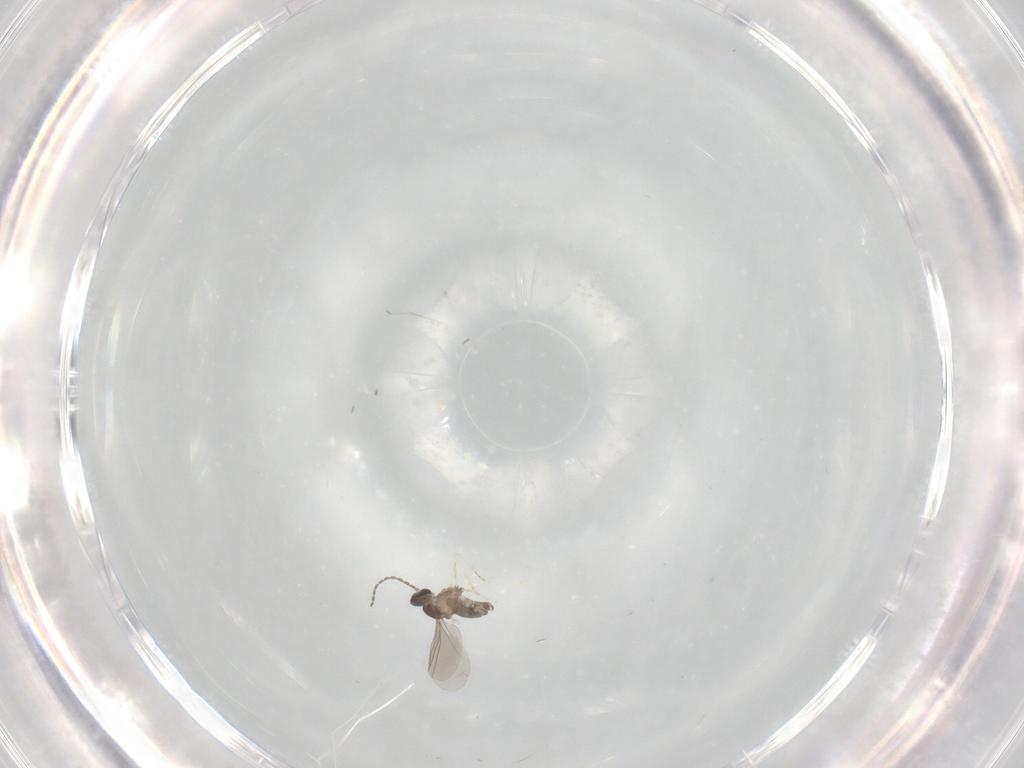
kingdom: Animalia
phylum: Arthropoda
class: Insecta
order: Diptera
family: Cecidomyiidae
